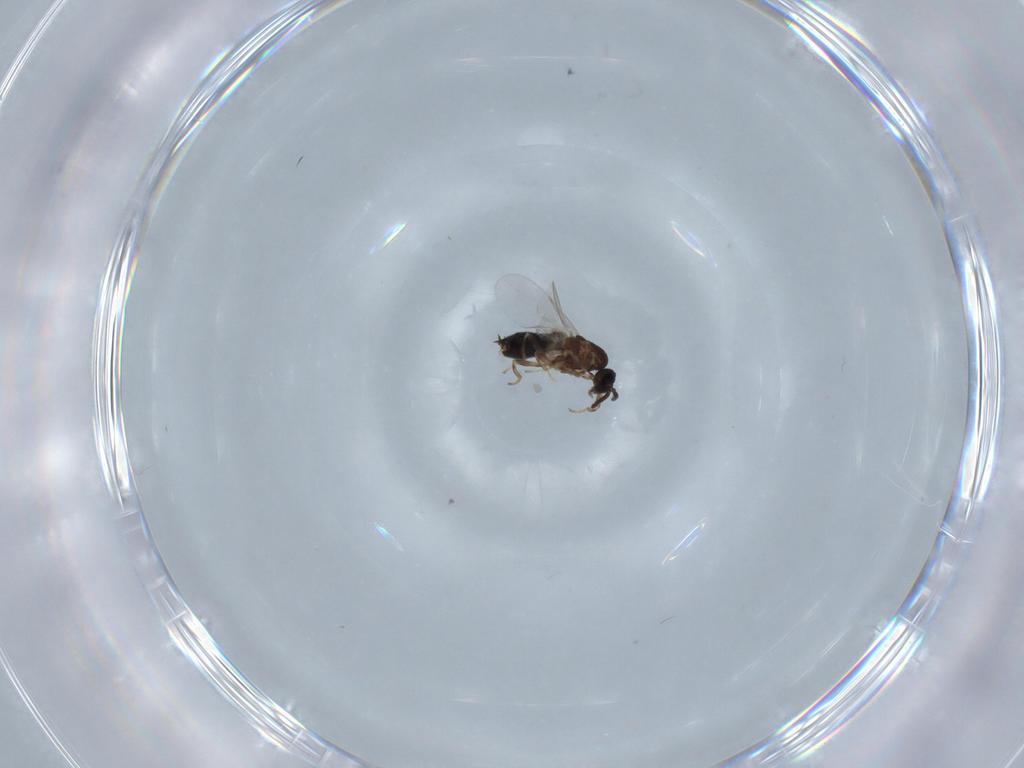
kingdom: Animalia
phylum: Arthropoda
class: Insecta
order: Diptera
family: Scatopsidae
